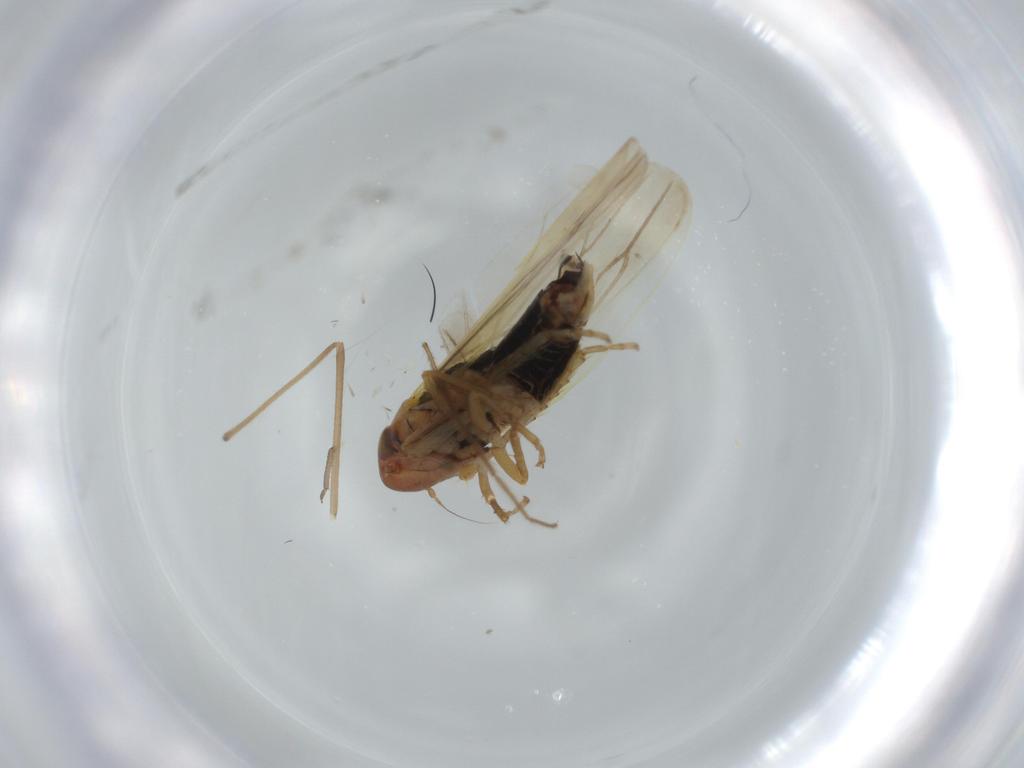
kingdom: Animalia
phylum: Arthropoda
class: Insecta
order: Hemiptera
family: Cicadellidae
